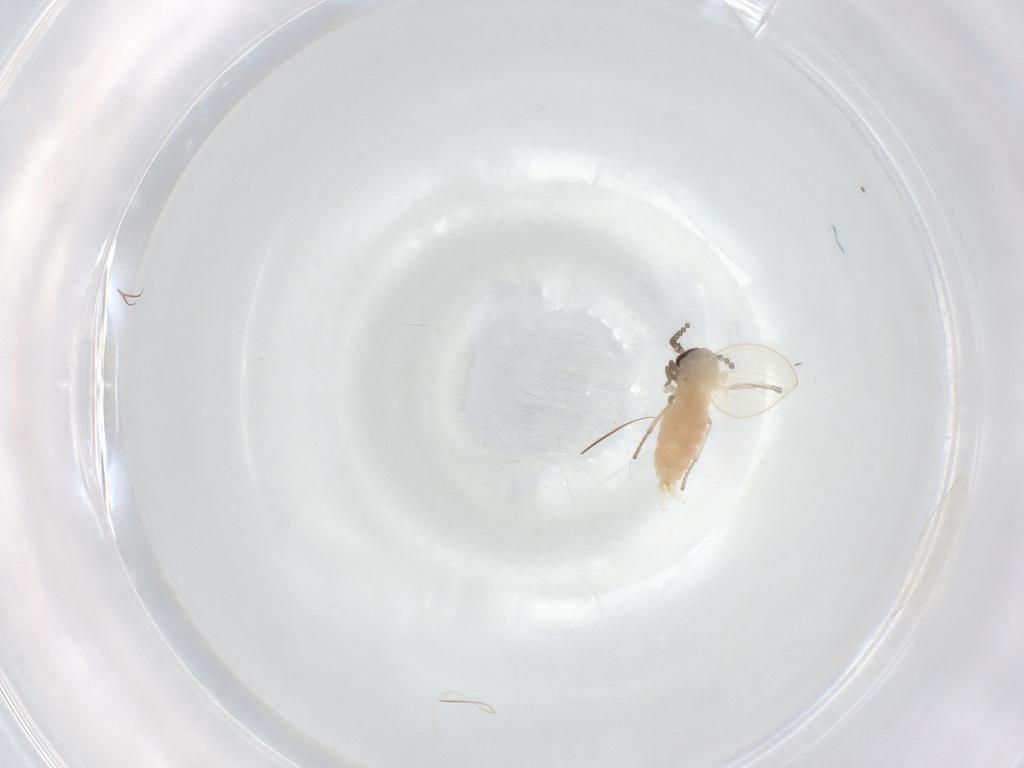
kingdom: Animalia
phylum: Arthropoda
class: Insecta
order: Diptera
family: Psychodidae
